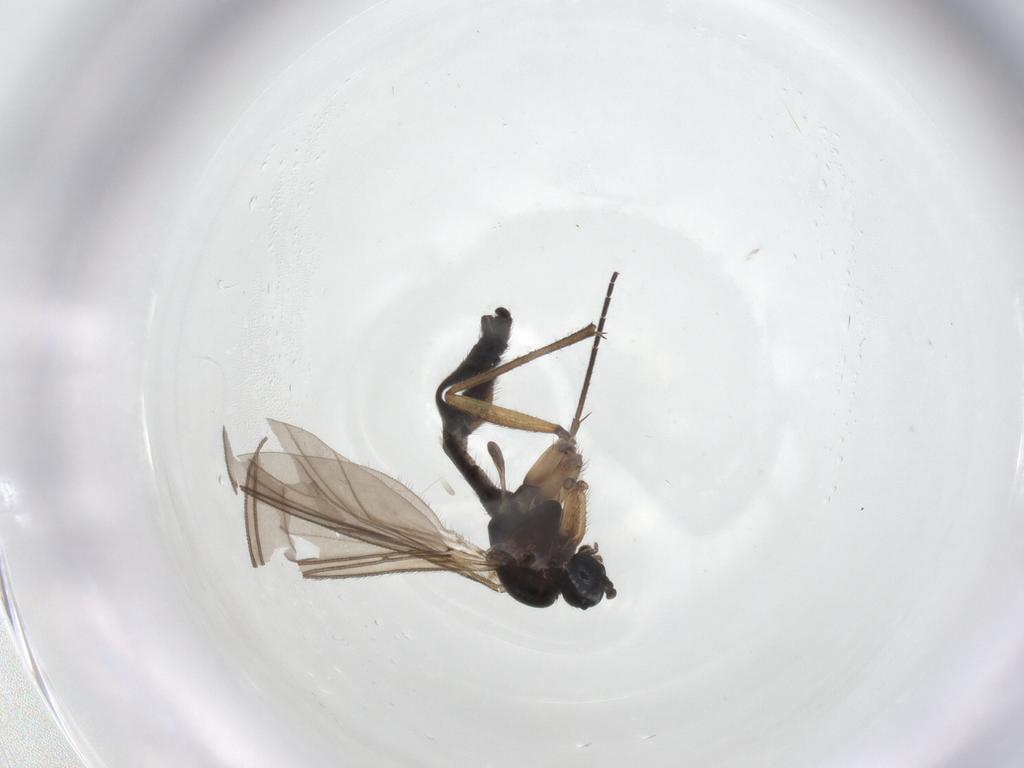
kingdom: Animalia
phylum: Arthropoda
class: Insecta
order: Diptera
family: Sciaridae
